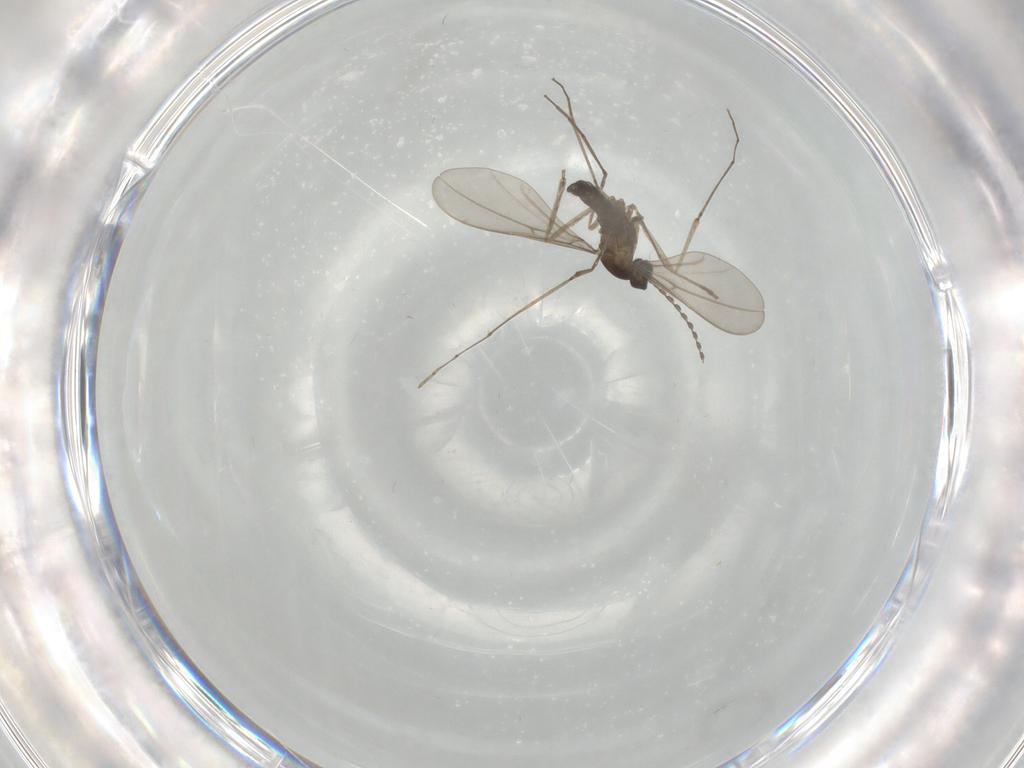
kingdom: Animalia
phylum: Arthropoda
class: Insecta
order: Diptera
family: Cecidomyiidae
